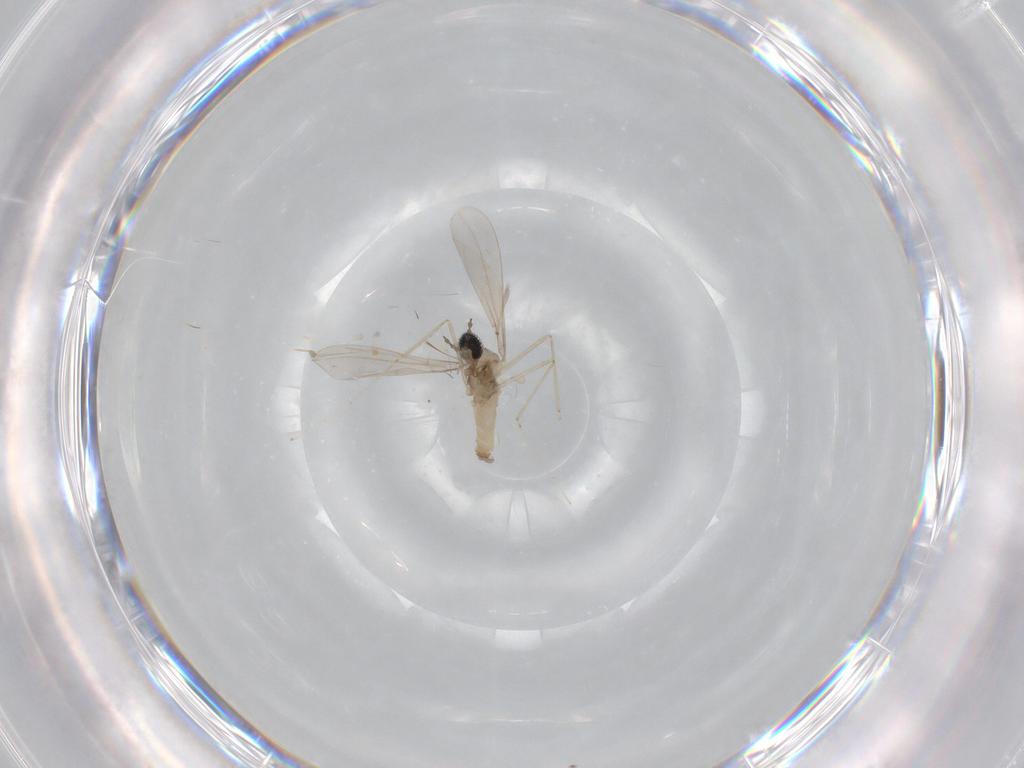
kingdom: Animalia
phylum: Arthropoda
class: Insecta
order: Diptera
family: Cecidomyiidae
